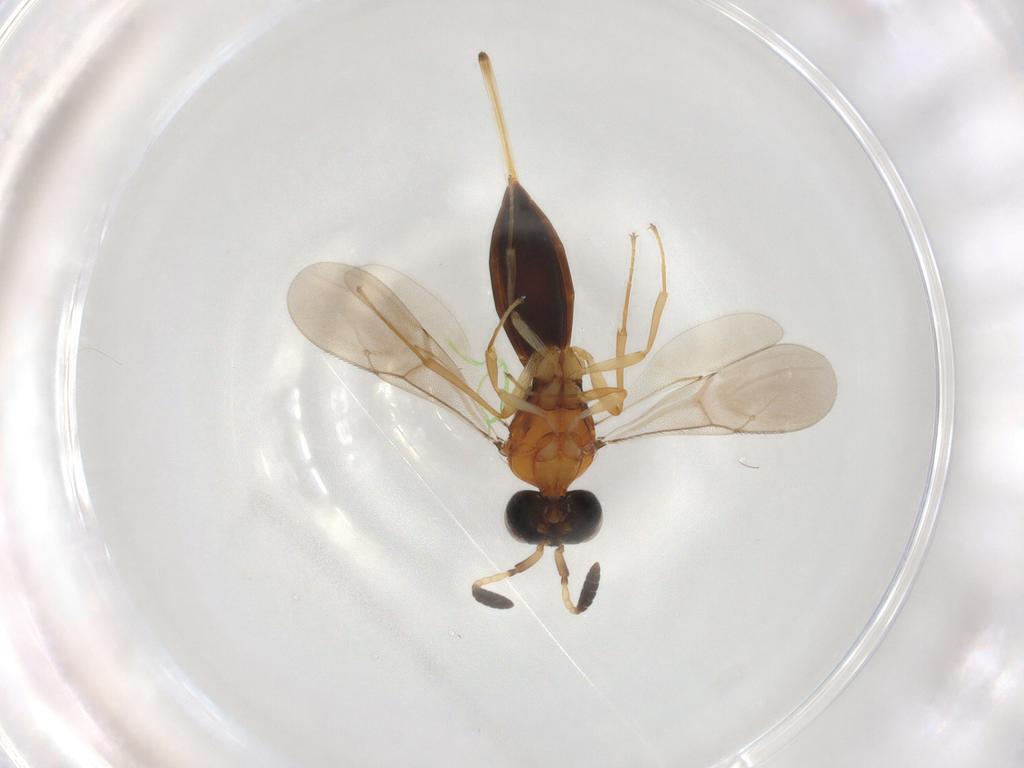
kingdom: Animalia
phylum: Arthropoda
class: Insecta
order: Hymenoptera
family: Scelionidae
